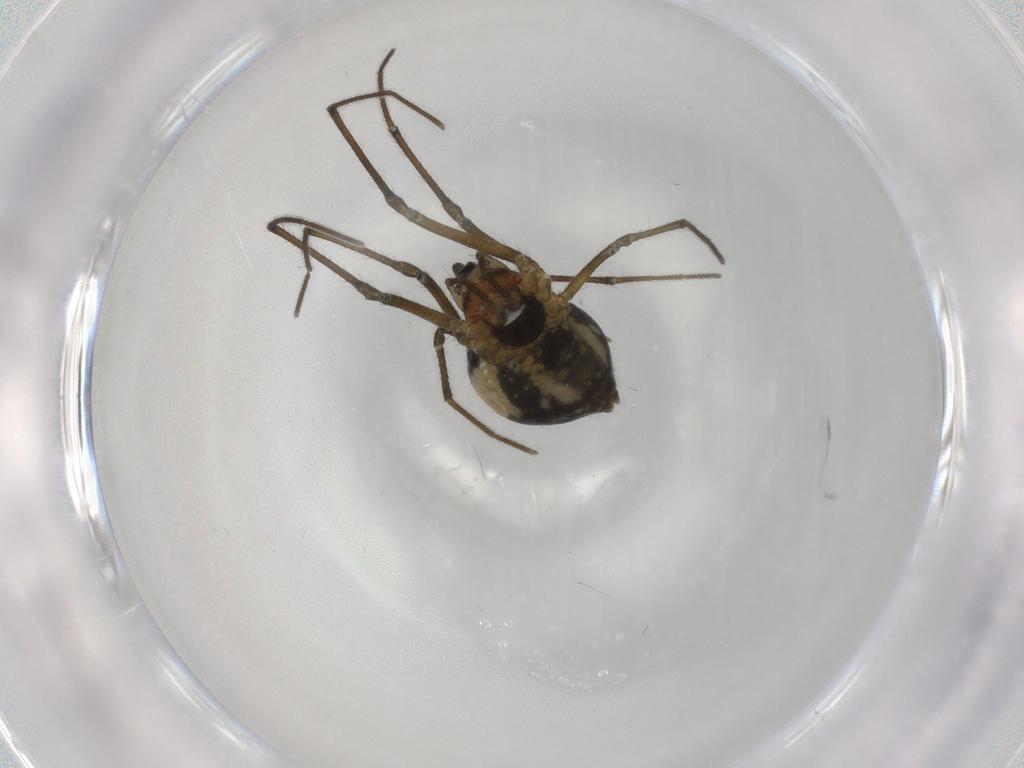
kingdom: Animalia
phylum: Arthropoda
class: Arachnida
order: Araneae
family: Tetragnathidae
